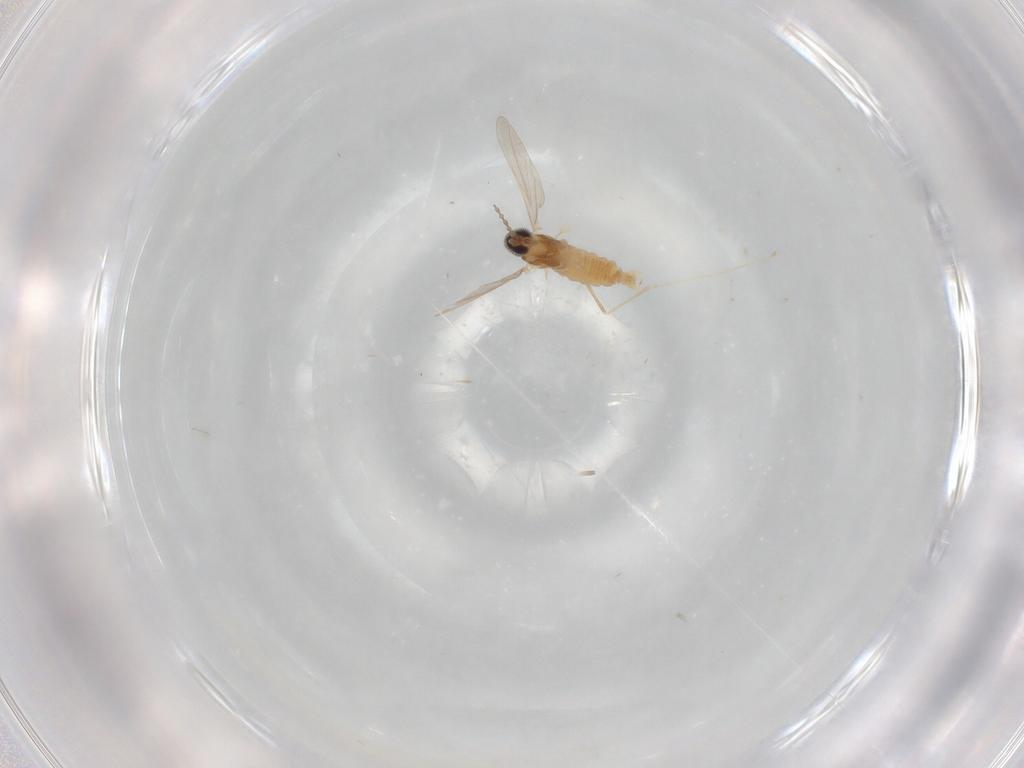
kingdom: Animalia
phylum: Arthropoda
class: Insecta
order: Diptera
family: Cecidomyiidae
